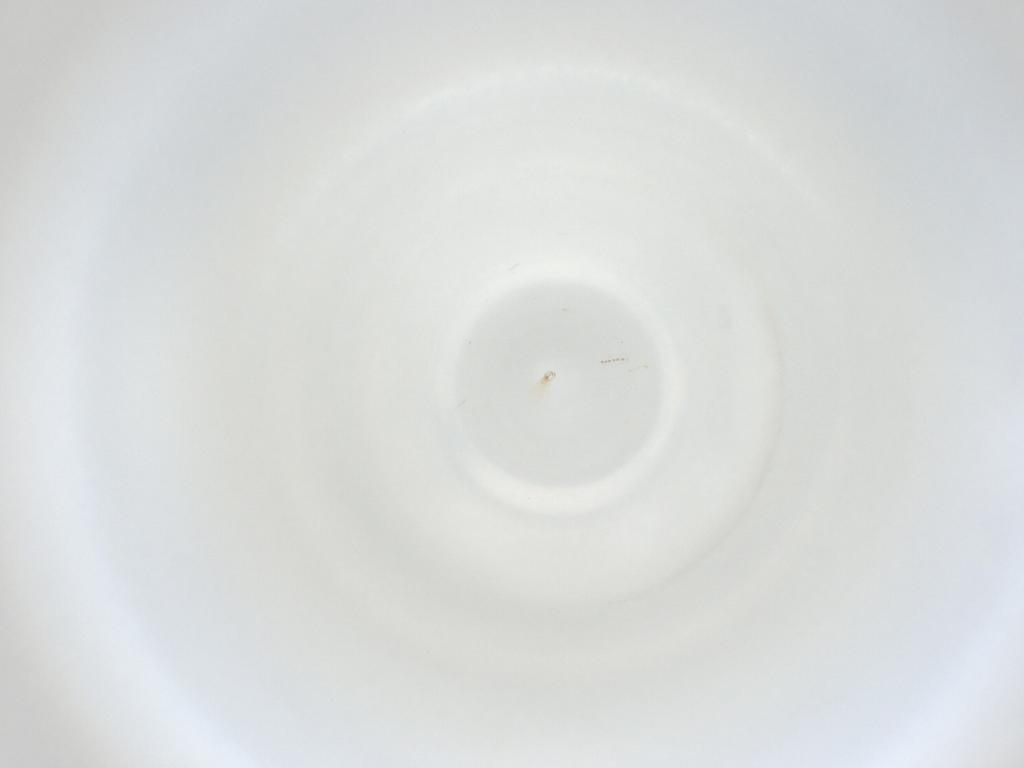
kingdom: Animalia
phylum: Arthropoda
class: Insecta
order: Diptera
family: Cecidomyiidae
